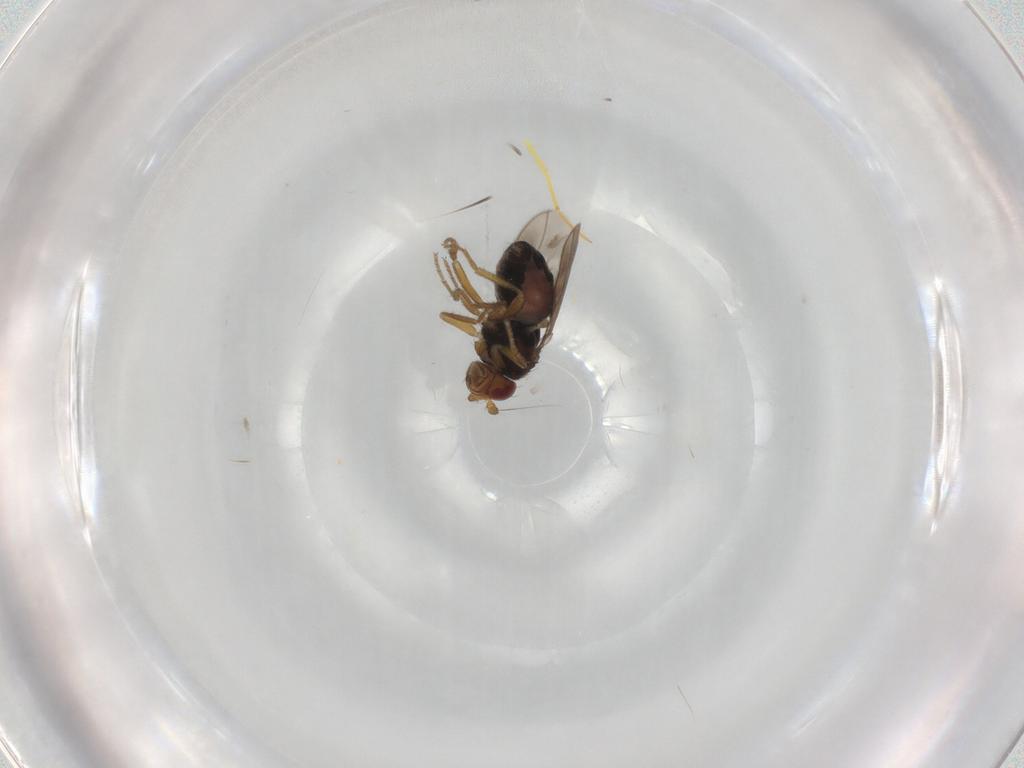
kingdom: Animalia
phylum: Arthropoda
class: Insecta
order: Diptera
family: Sphaeroceridae
